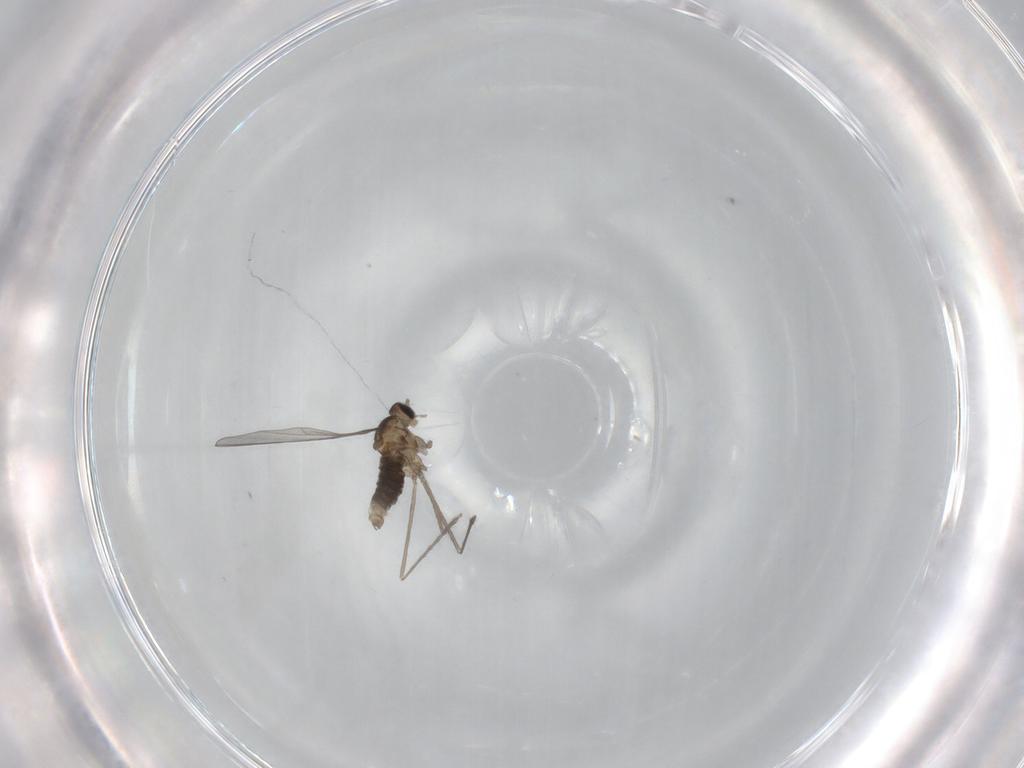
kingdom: Animalia
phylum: Arthropoda
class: Insecta
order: Diptera
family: Cecidomyiidae
